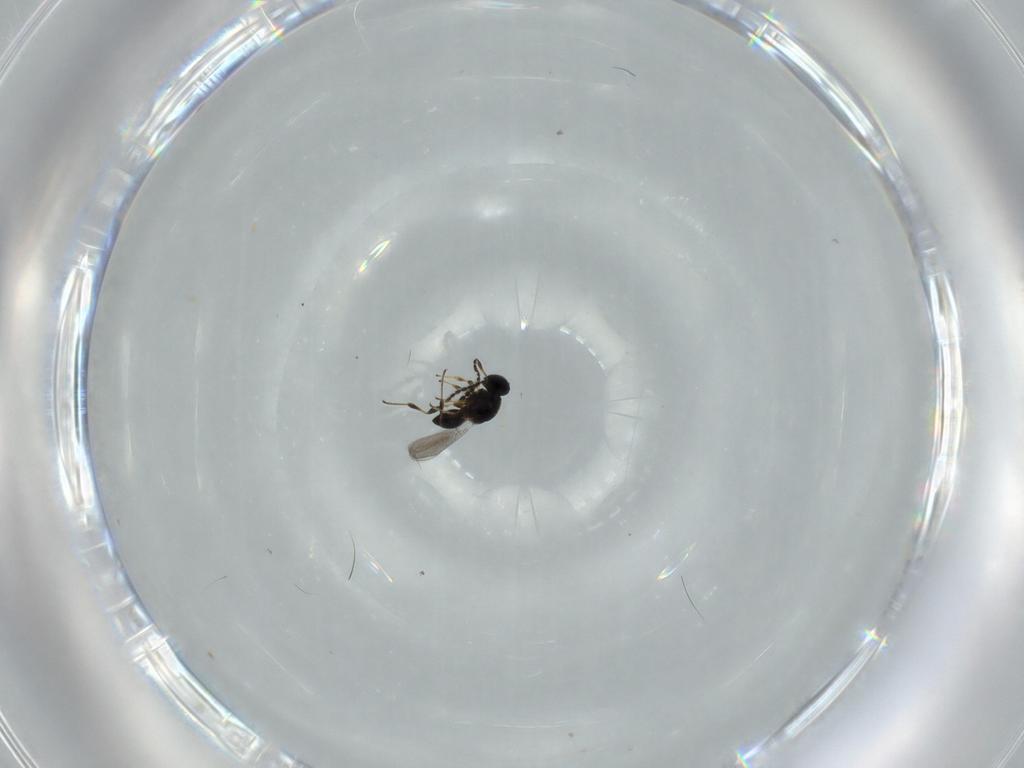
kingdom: Animalia
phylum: Arthropoda
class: Insecta
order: Hymenoptera
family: Platygastridae
